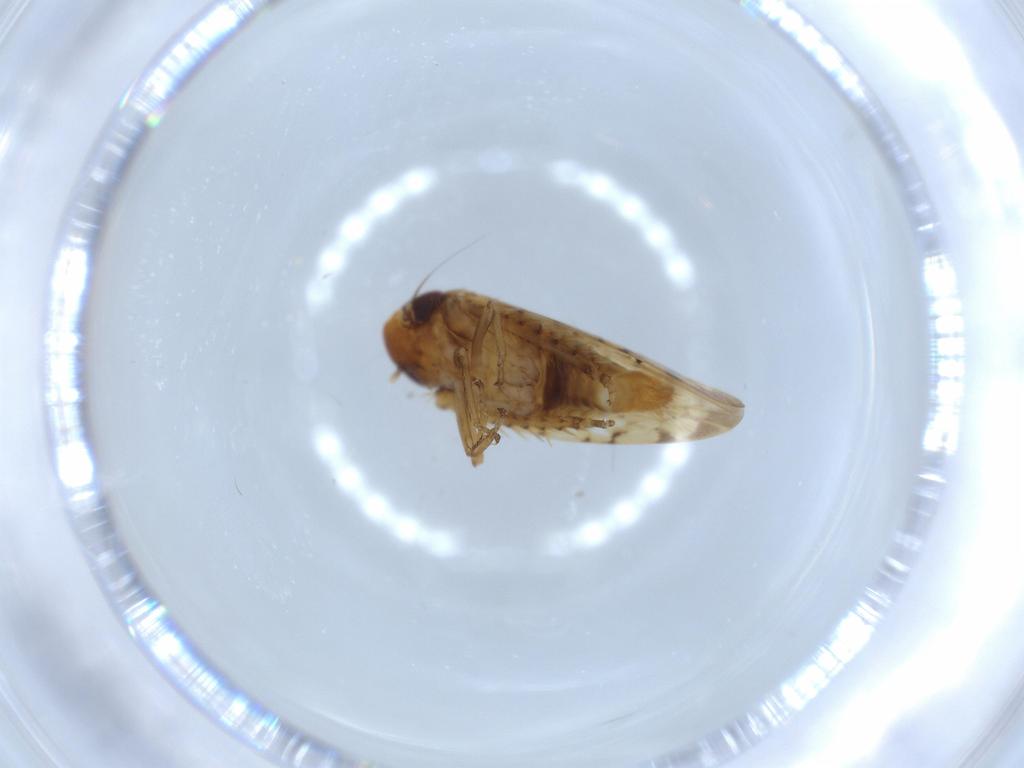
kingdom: Animalia
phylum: Arthropoda
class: Insecta
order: Hemiptera
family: Cicadellidae
